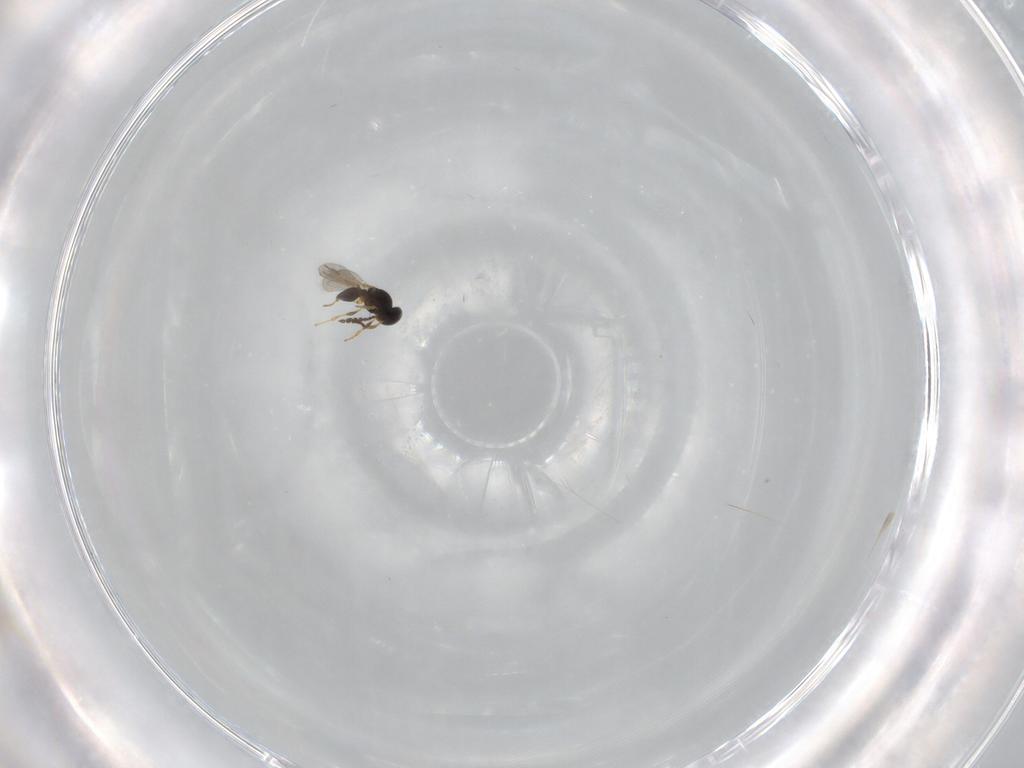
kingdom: Animalia
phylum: Arthropoda
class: Insecta
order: Hymenoptera
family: Platygastridae
